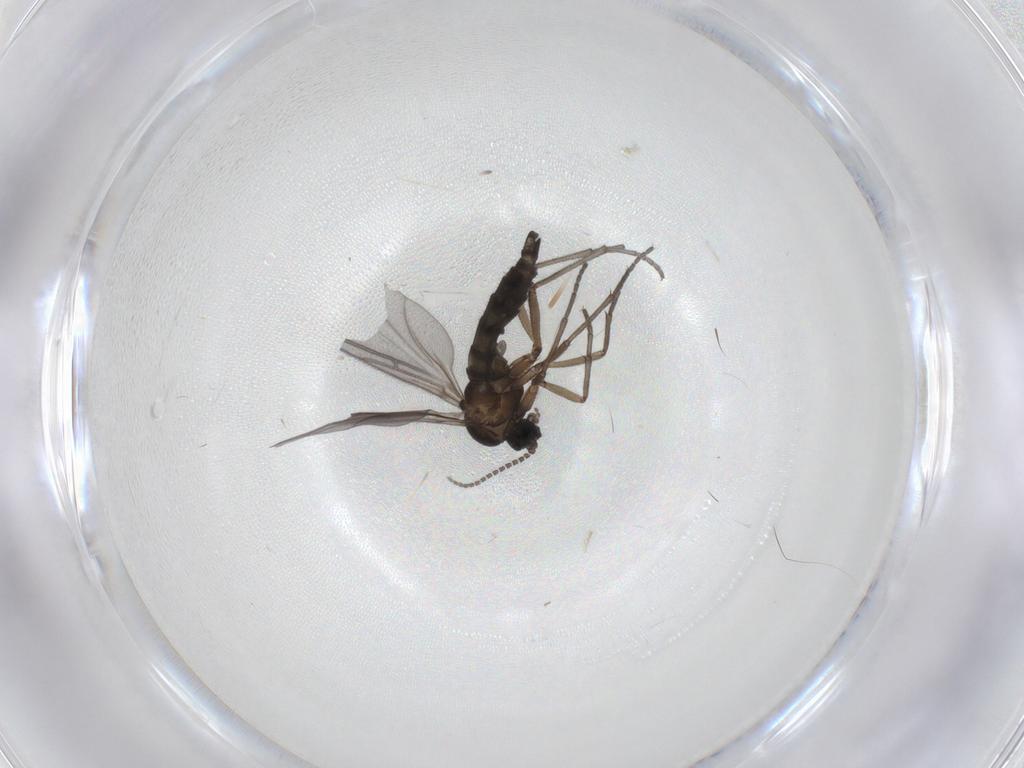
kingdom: Animalia
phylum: Arthropoda
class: Insecta
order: Diptera
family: Sciaridae
